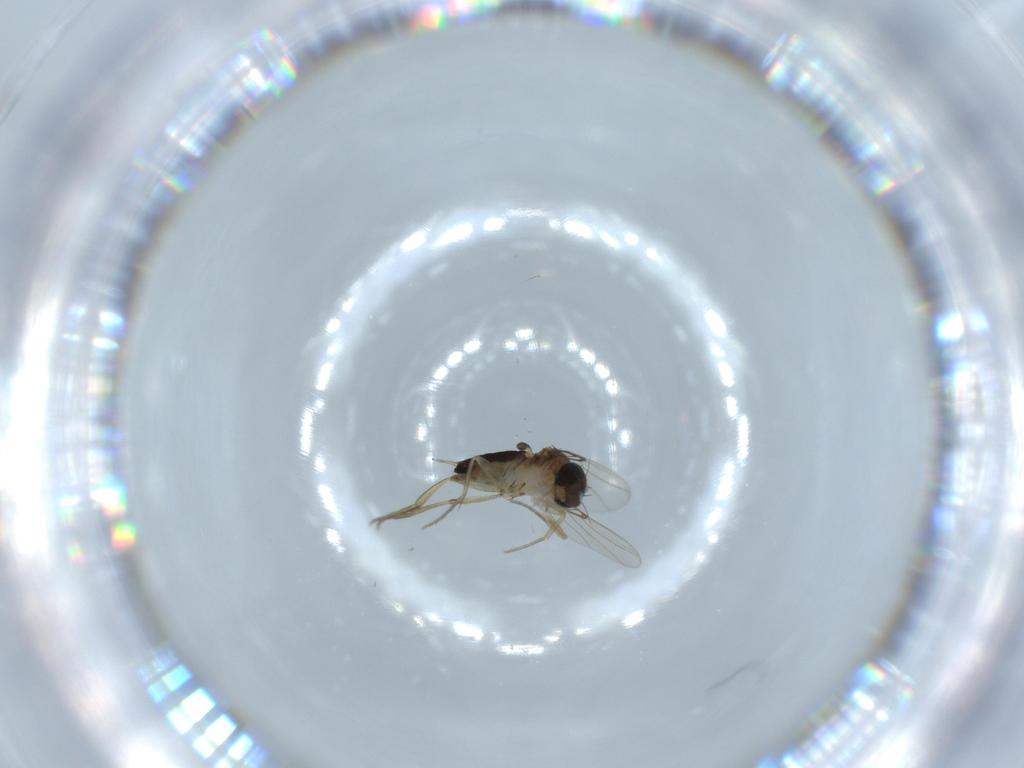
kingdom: Animalia
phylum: Arthropoda
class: Insecta
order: Diptera
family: Phoridae
